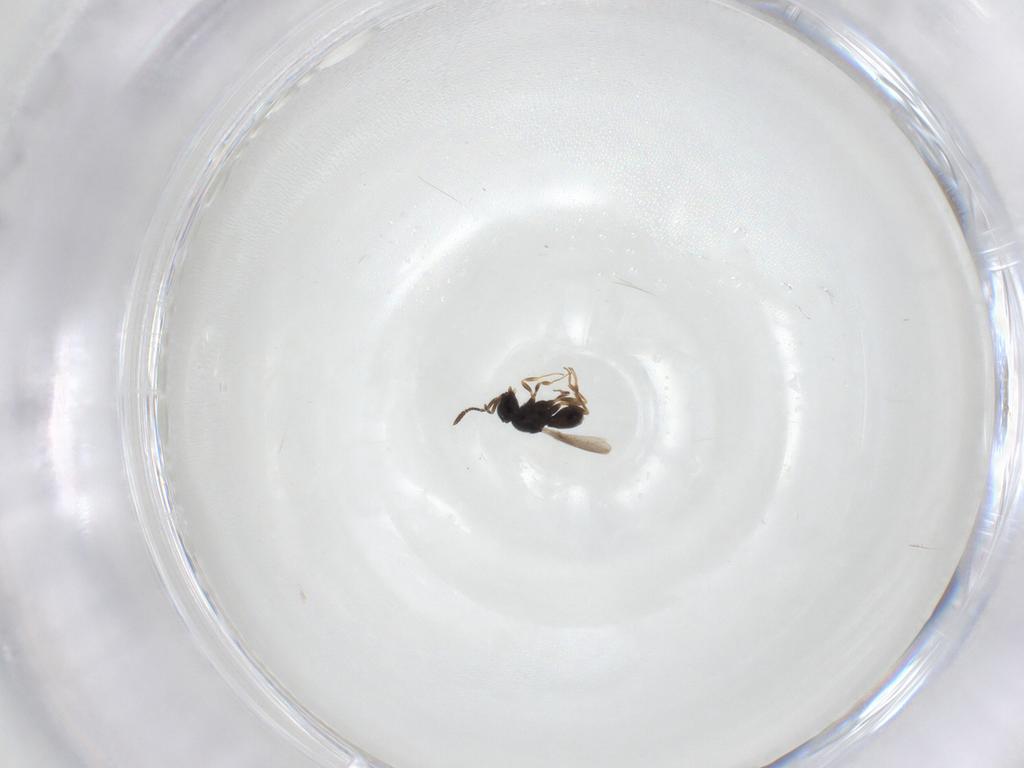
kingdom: Animalia
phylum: Arthropoda
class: Insecta
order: Hymenoptera
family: Scelionidae
